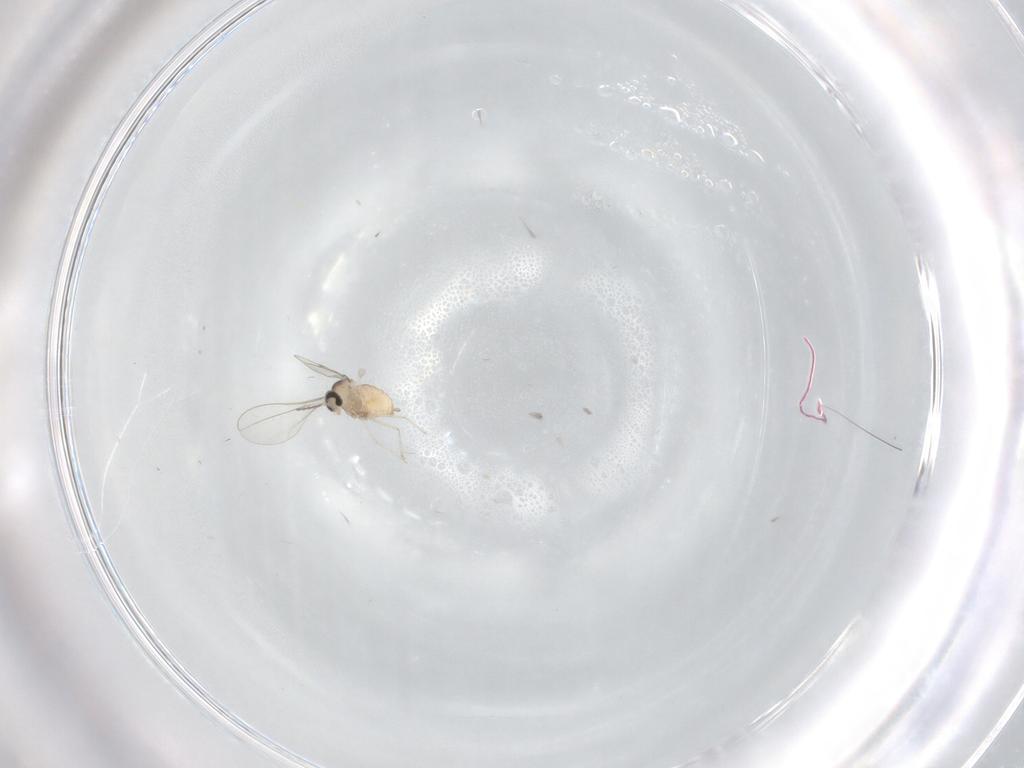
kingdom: Animalia
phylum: Arthropoda
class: Insecta
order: Diptera
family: Cecidomyiidae
